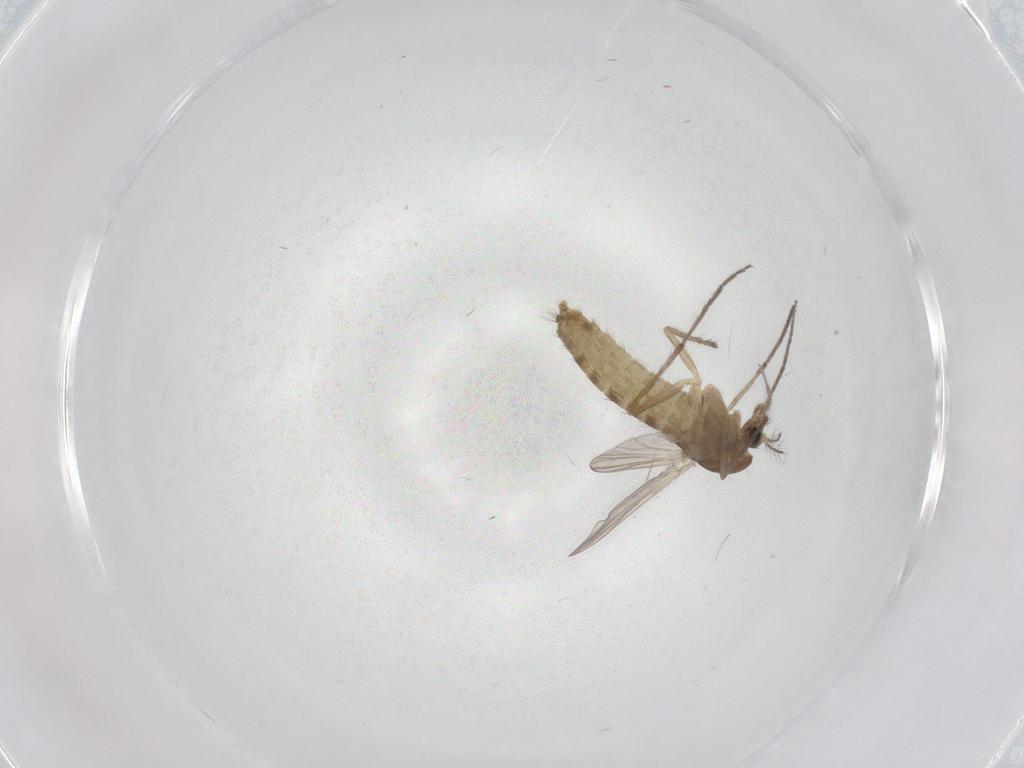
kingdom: Animalia
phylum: Arthropoda
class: Insecta
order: Diptera
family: Chironomidae
